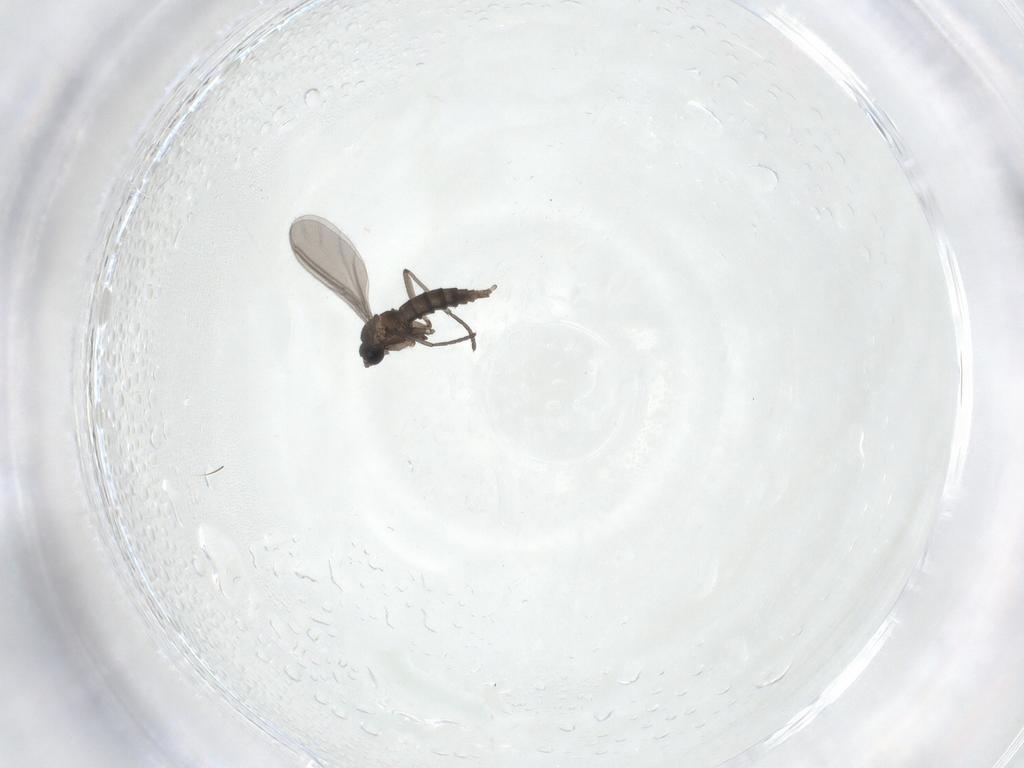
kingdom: Animalia
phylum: Arthropoda
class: Insecta
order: Diptera
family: Sciaridae
